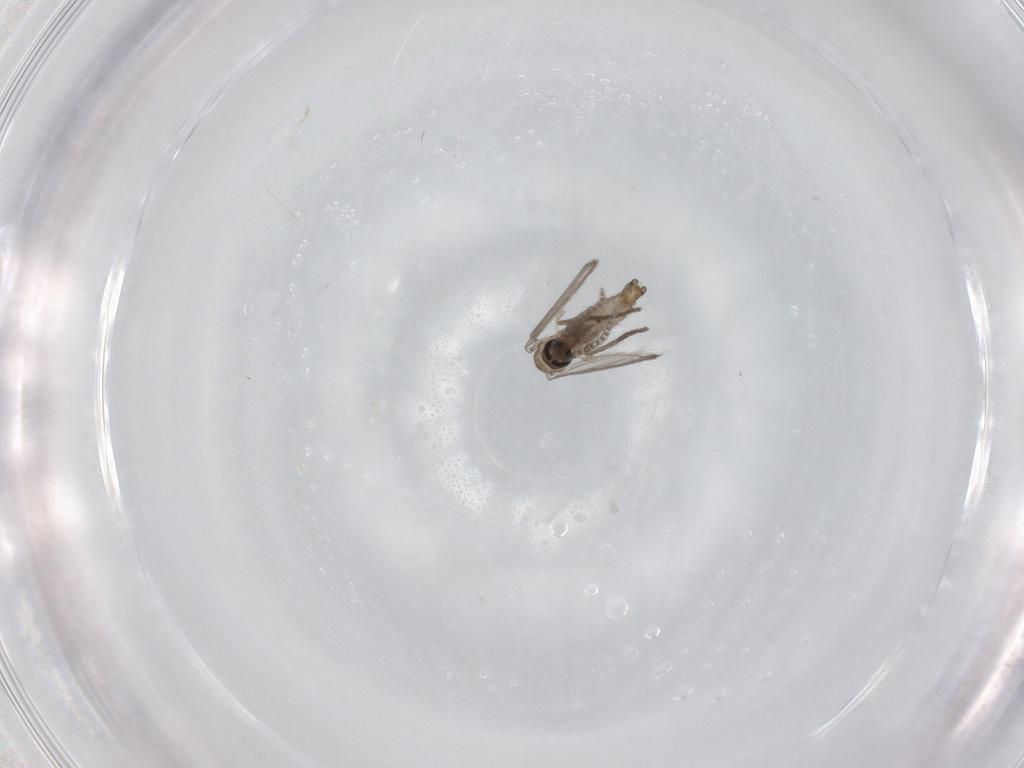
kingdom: Animalia
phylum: Arthropoda
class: Insecta
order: Diptera
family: Psychodidae
